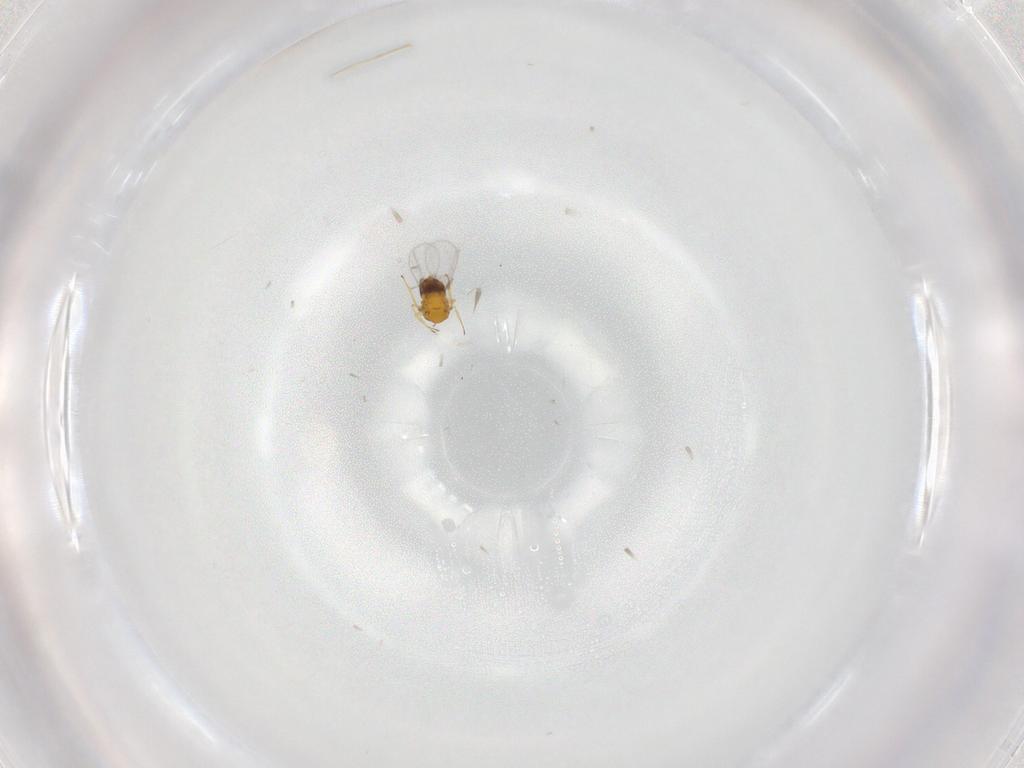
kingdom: Animalia
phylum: Arthropoda
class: Insecta
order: Hymenoptera
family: Trichogrammatidae
